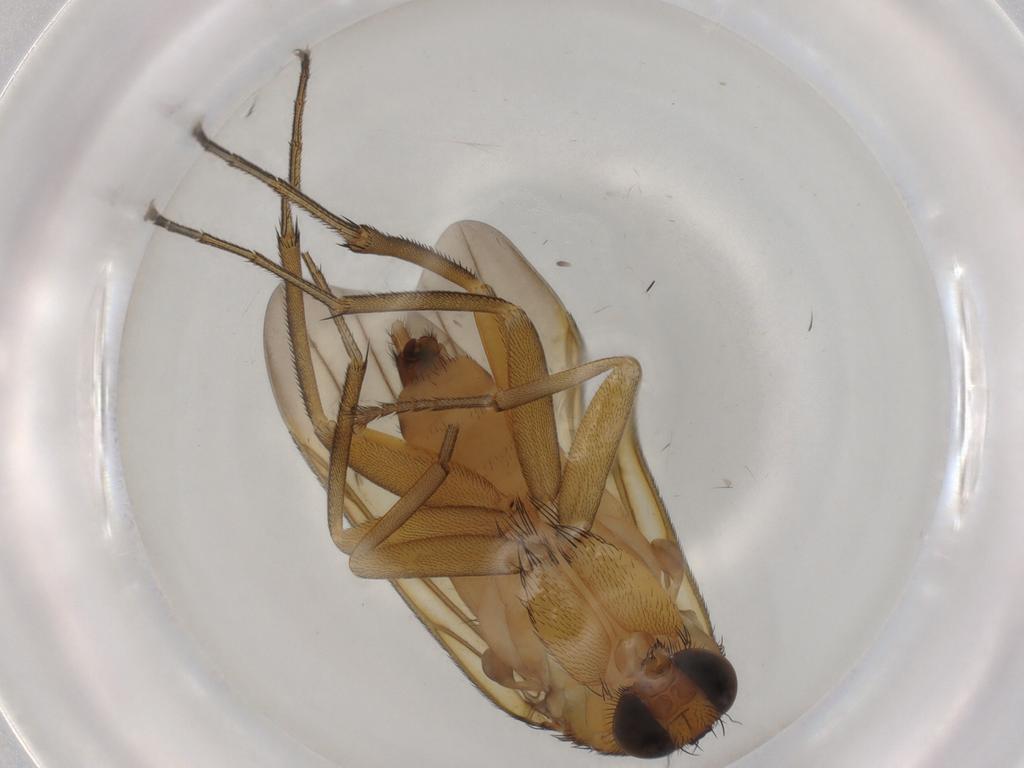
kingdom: Animalia
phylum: Arthropoda
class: Insecta
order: Diptera
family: Phoridae
